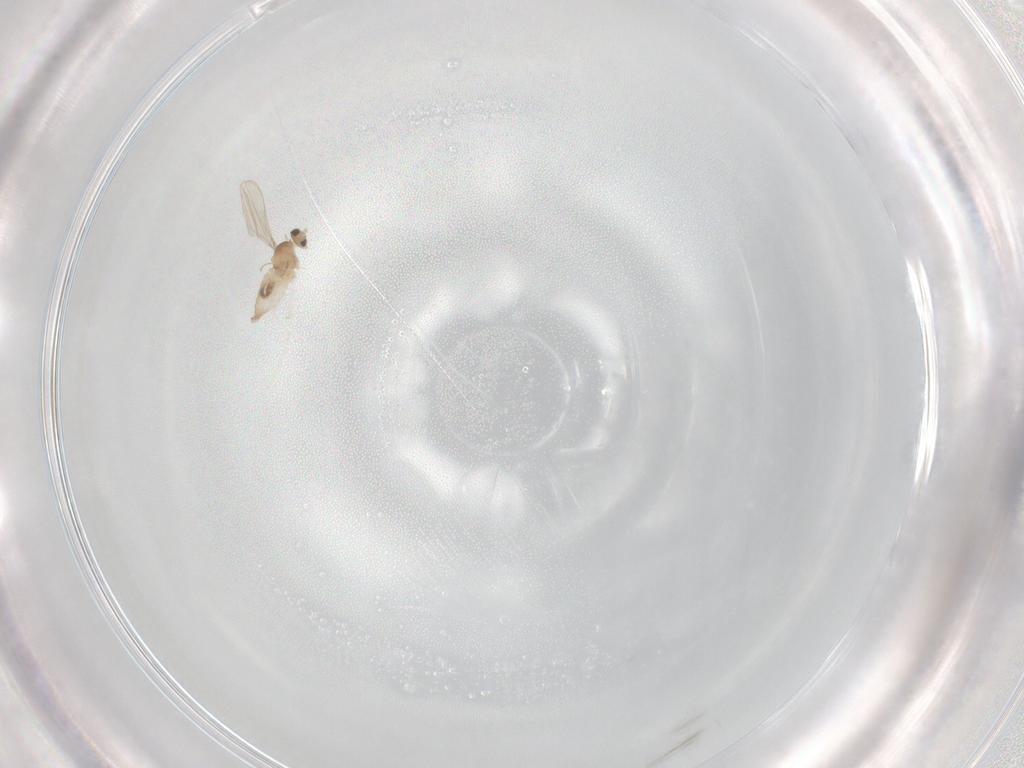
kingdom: Animalia
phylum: Arthropoda
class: Insecta
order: Diptera
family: Cecidomyiidae
